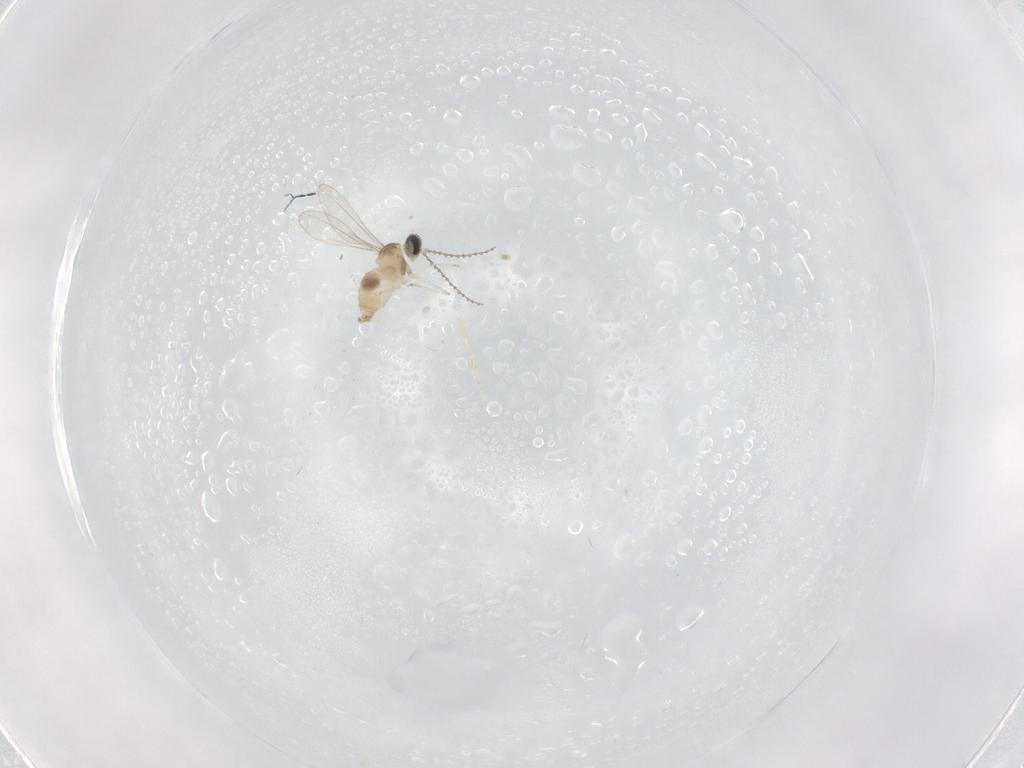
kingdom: Animalia
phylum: Arthropoda
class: Insecta
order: Diptera
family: Cecidomyiidae
